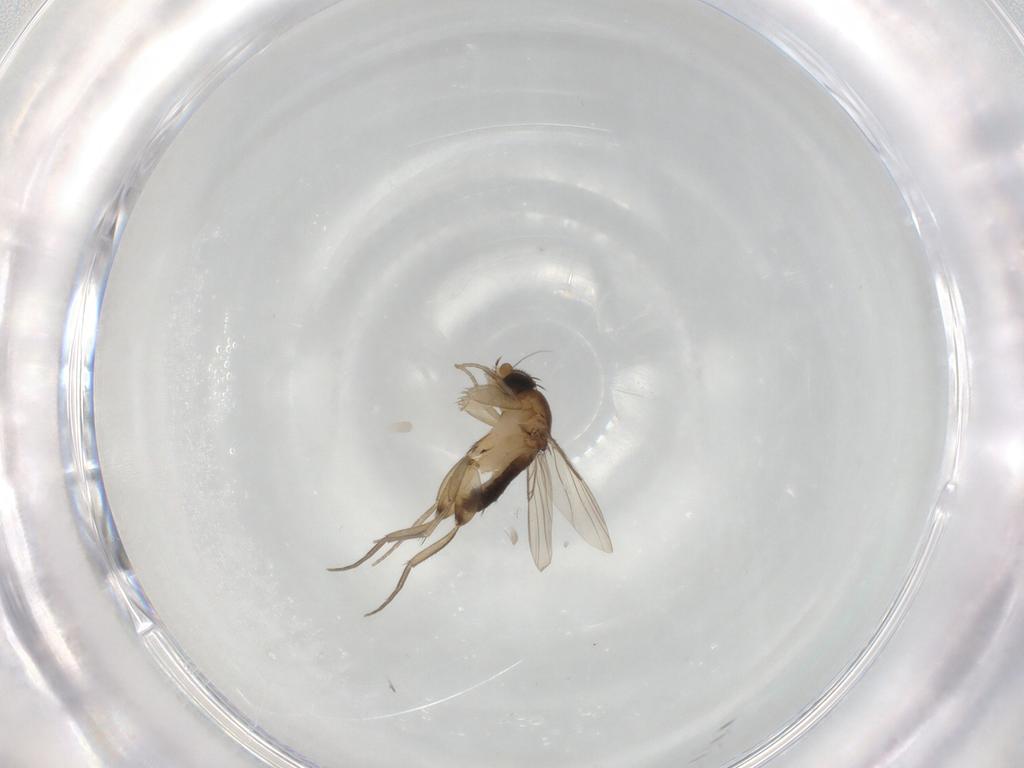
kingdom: Animalia
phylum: Arthropoda
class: Insecta
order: Diptera
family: Phoridae
